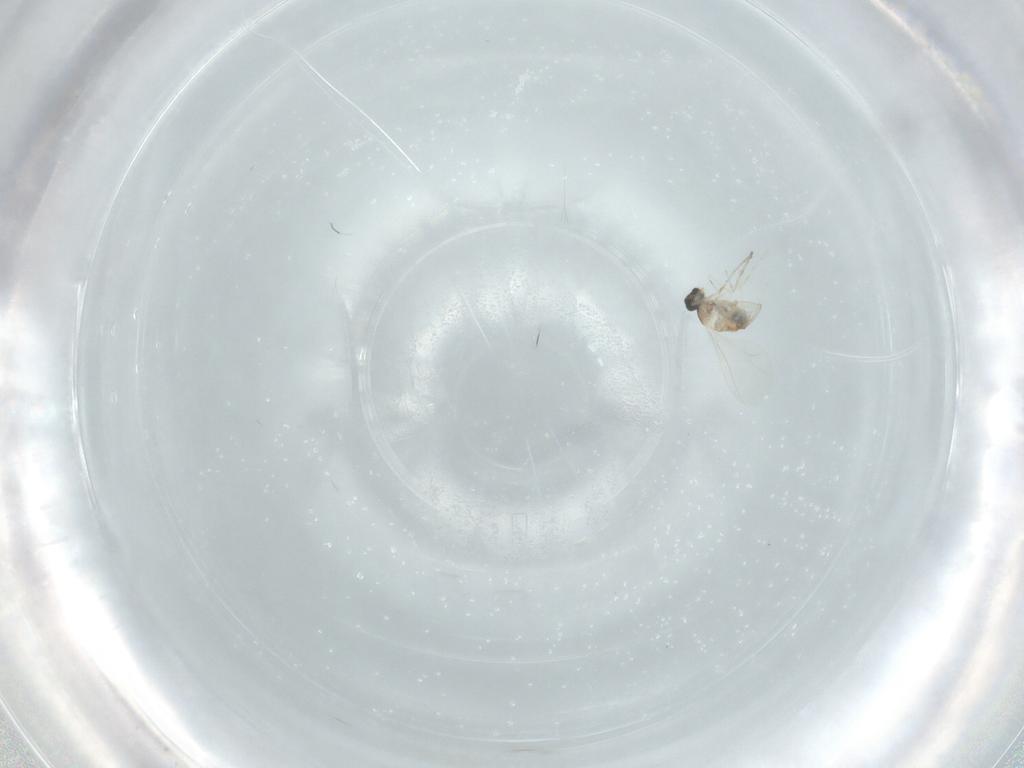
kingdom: Animalia
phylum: Arthropoda
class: Insecta
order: Diptera
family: Cecidomyiidae
